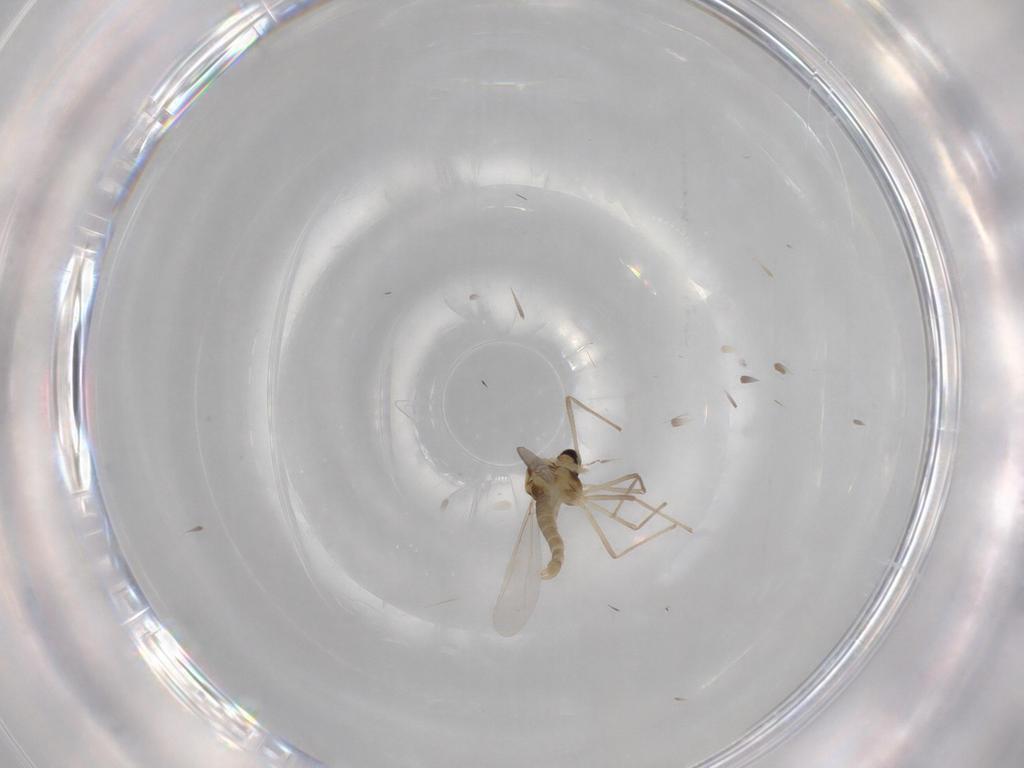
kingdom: Animalia
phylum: Arthropoda
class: Insecta
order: Diptera
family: Chironomidae
